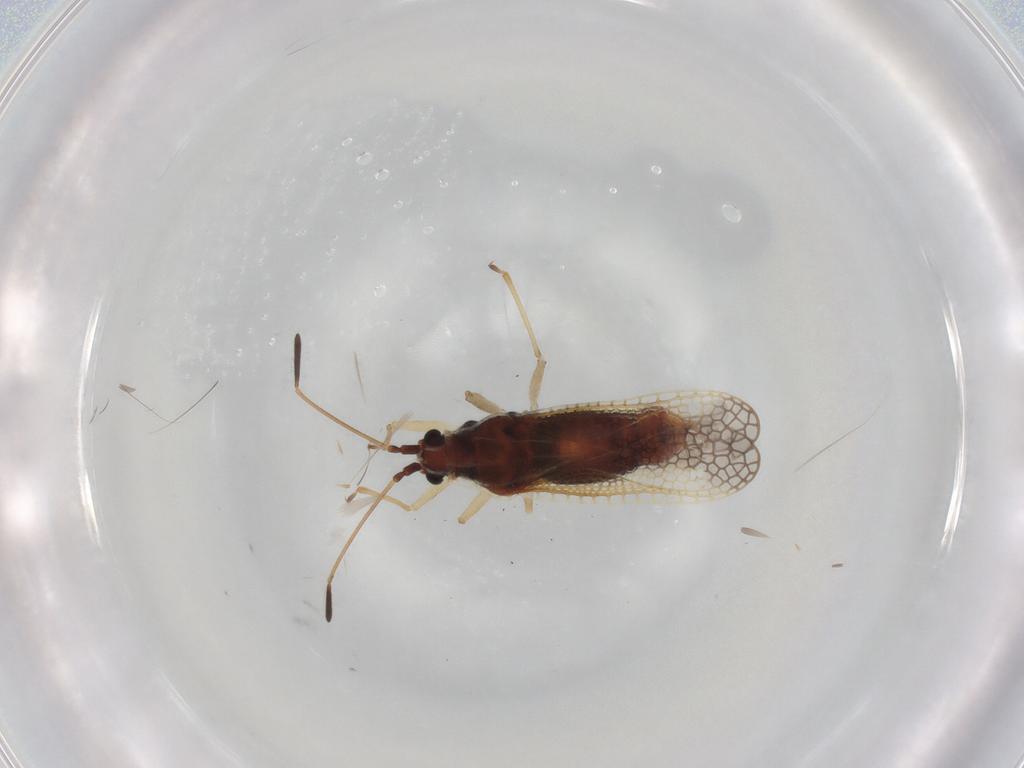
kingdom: Animalia
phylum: Arthropoda
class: Insecta
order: Hemiptera
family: Tingidae
